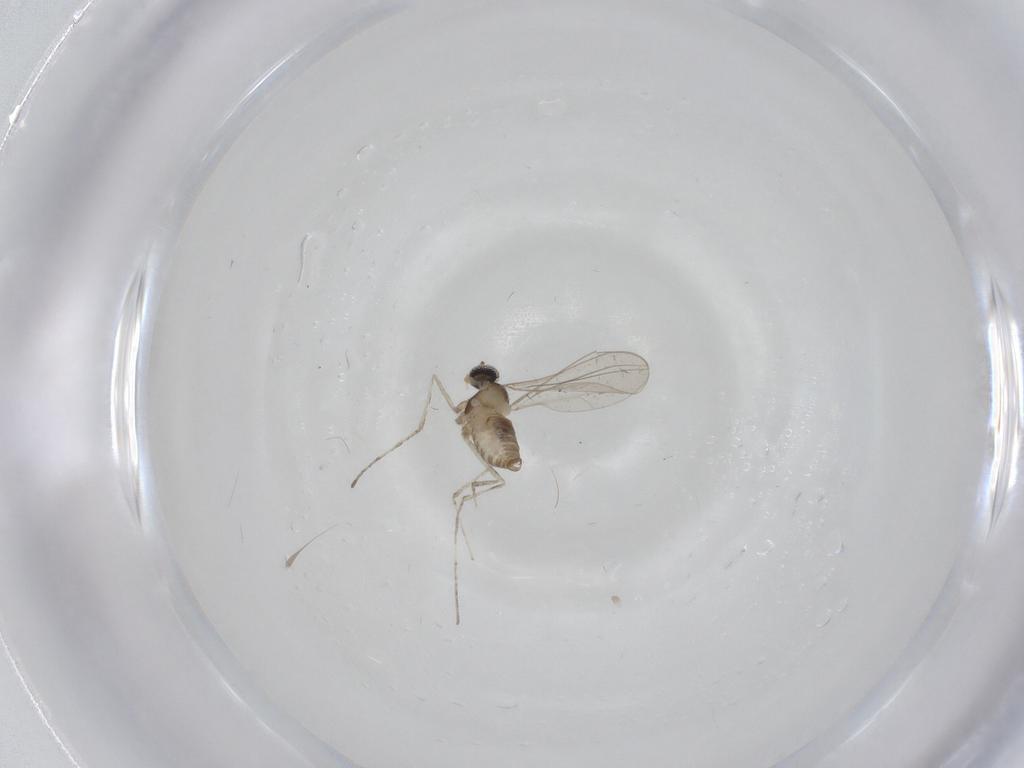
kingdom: Animalia
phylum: Arthropoda
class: Insecta
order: Diptera
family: Cecidomyiidae
